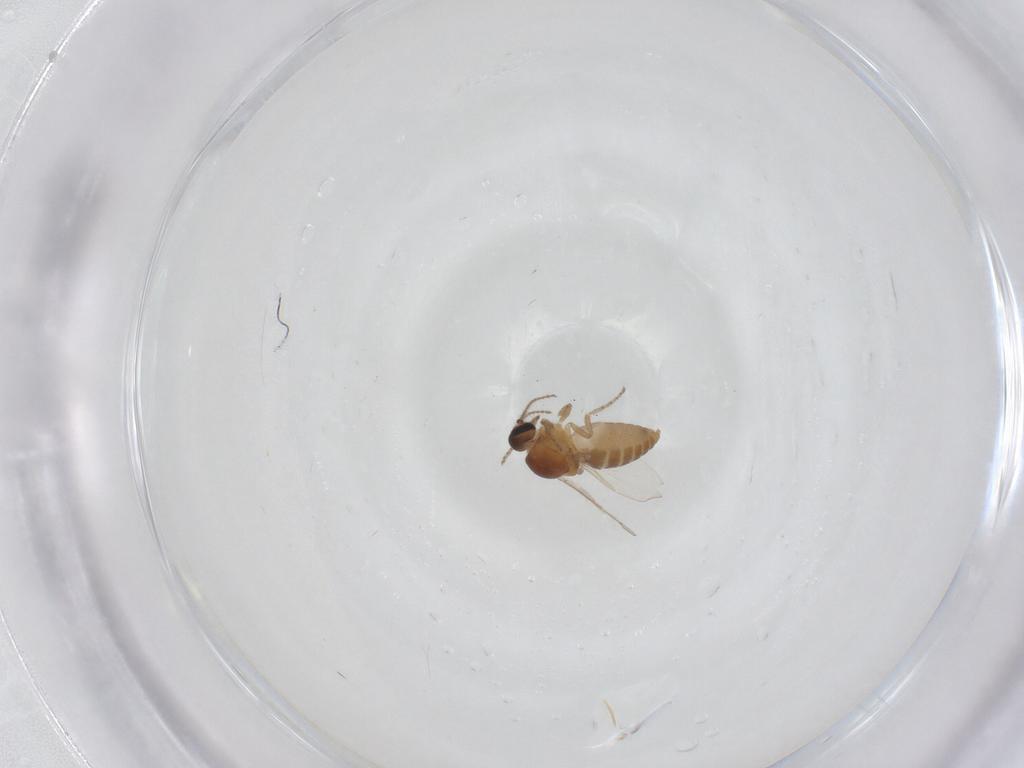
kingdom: Animalia
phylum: Arthropoda
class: Insecta
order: Diptera
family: Ceratopogonidae
